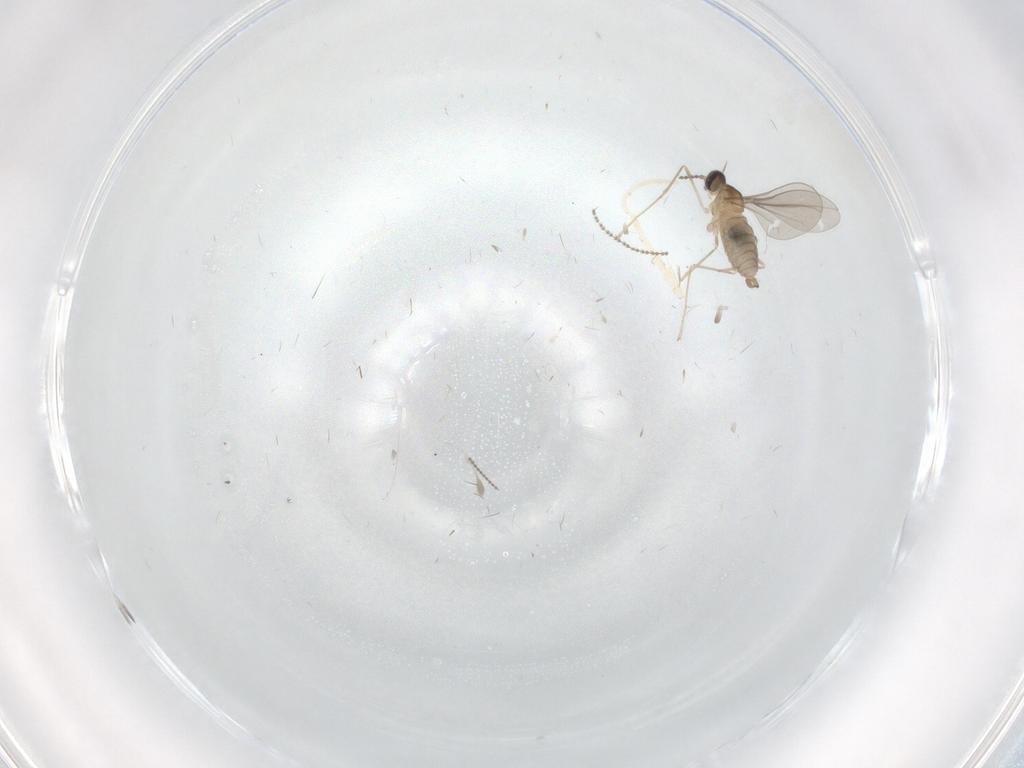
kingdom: Animalia
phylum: Arthropoda
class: Insecta
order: Diptera
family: Cecidomyiidae
